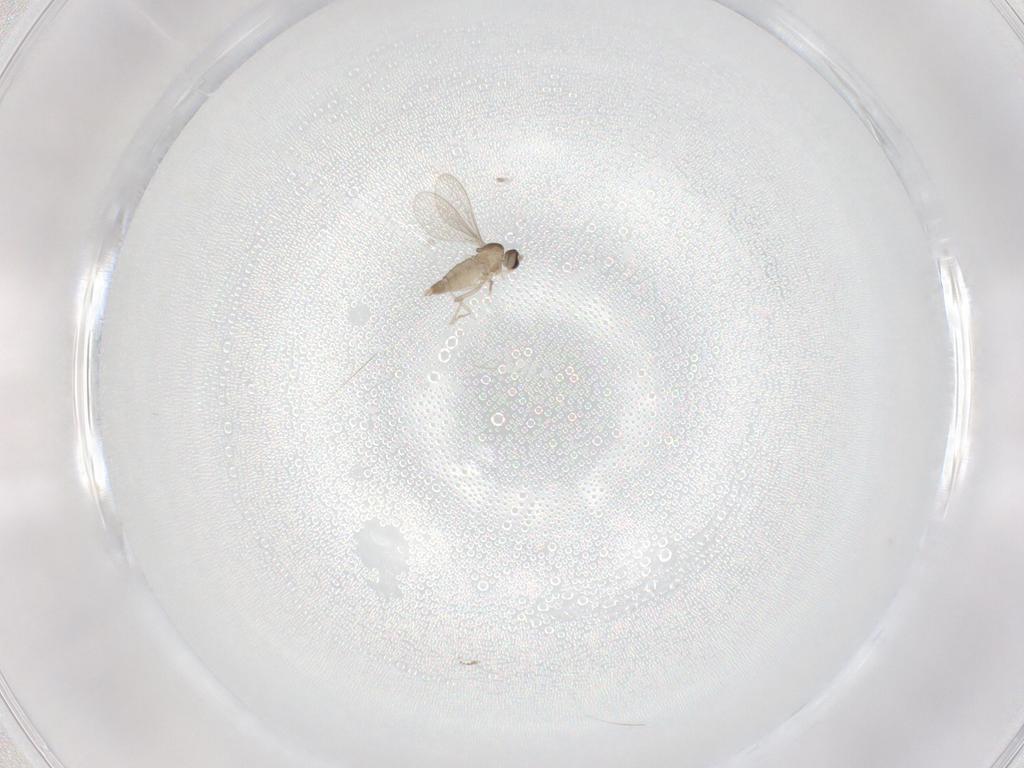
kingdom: Animalia
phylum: Arthropoda
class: Insecta
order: Diptera
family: Cecidomyiidae
